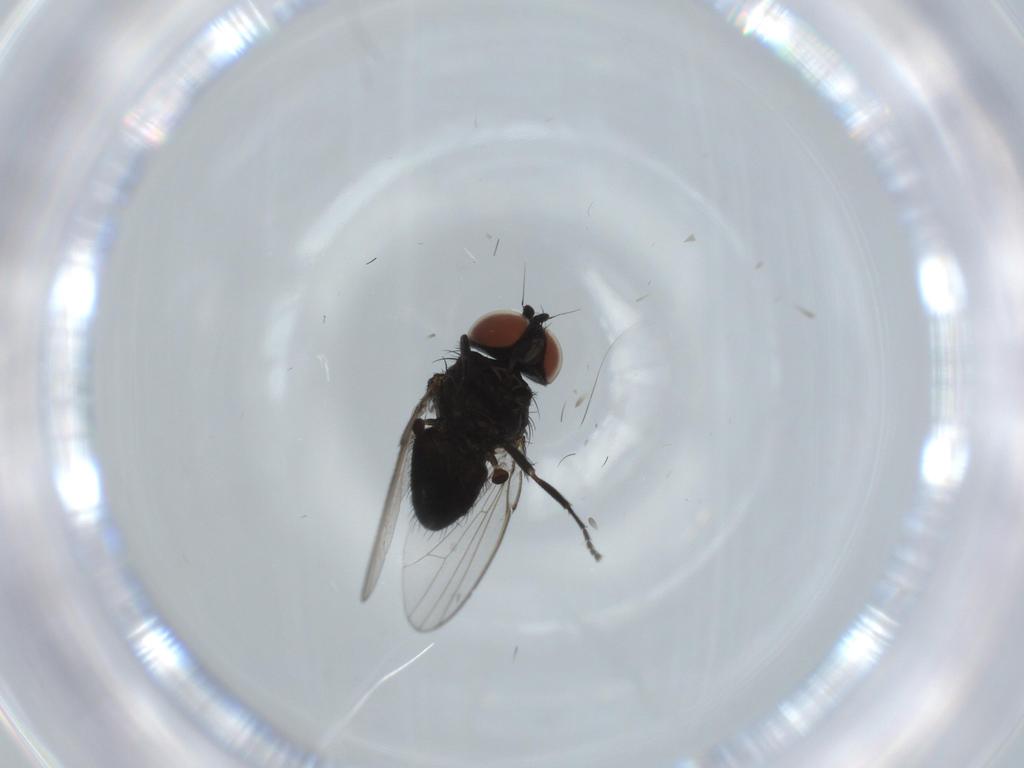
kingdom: Animalia
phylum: Arthropoda
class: Insecta
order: Diptera
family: Milichiidae
